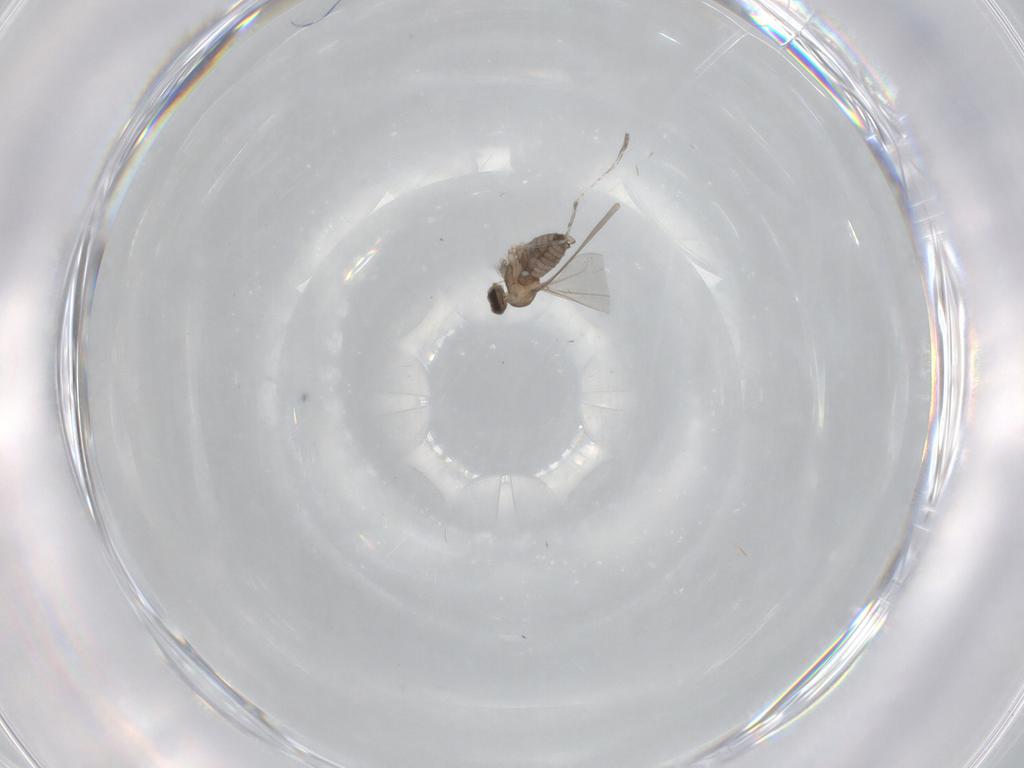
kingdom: Animalia
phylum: Arthropoda
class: Insecta
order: Diptera
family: Cecidomyiidae
